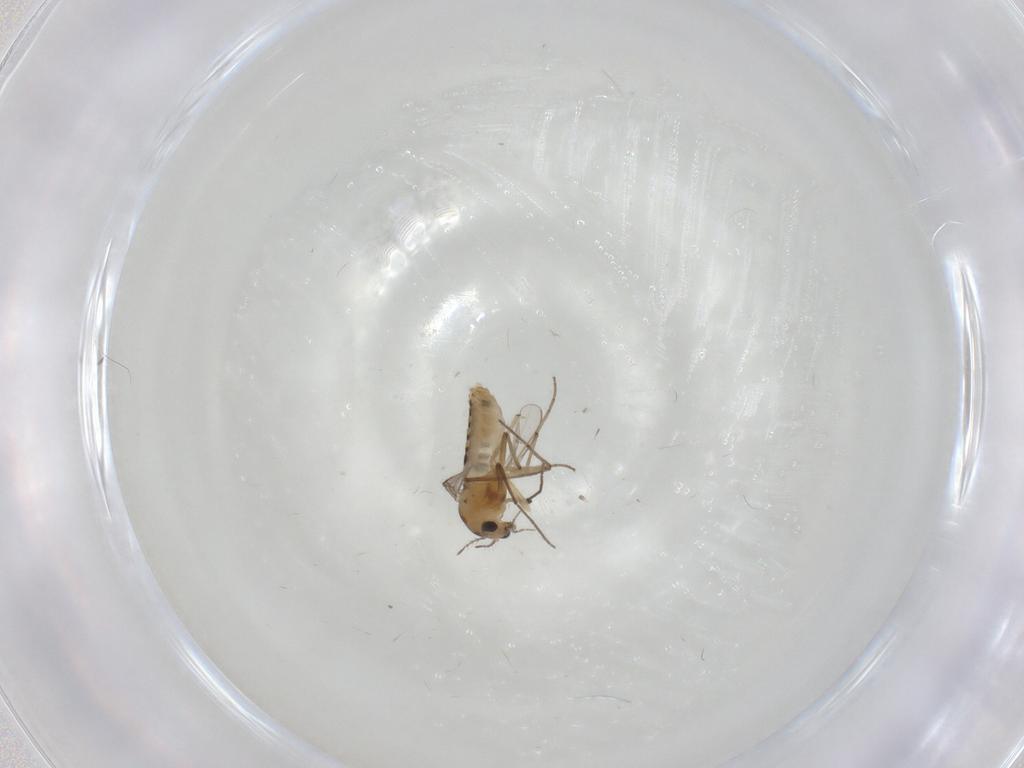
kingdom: Animalia
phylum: Arthropoda
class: Insecta
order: Diptera
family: Chironomidae
